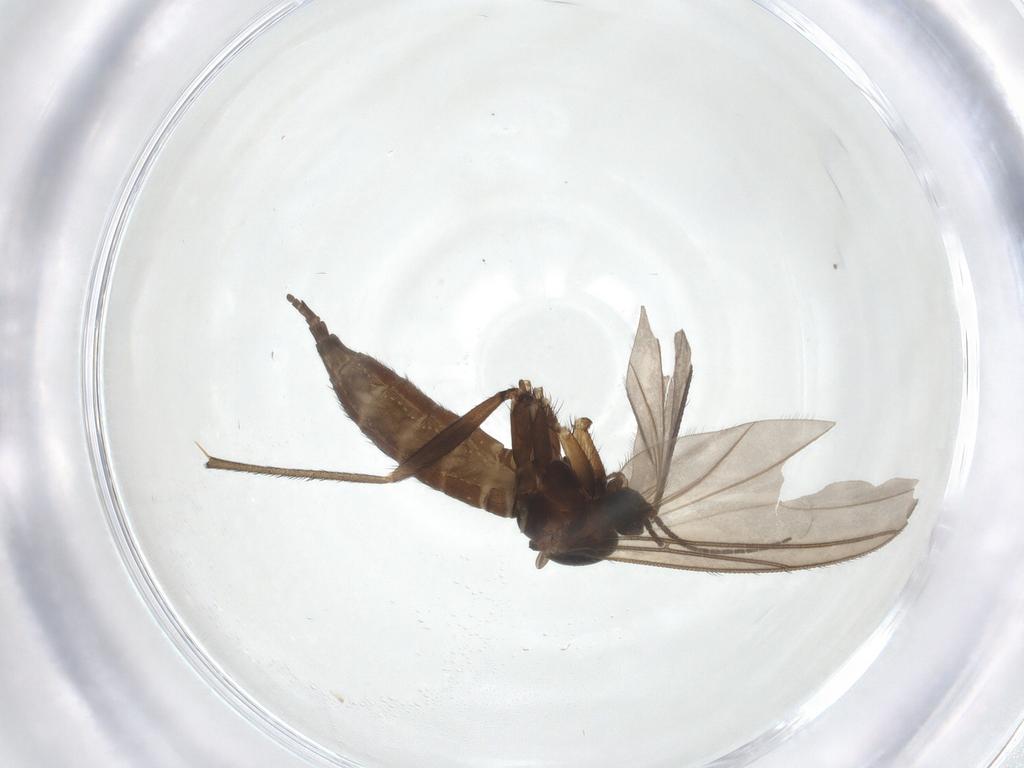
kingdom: Animalia
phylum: Arthropoda
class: Insecta
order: Diptera
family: Sciaridae
